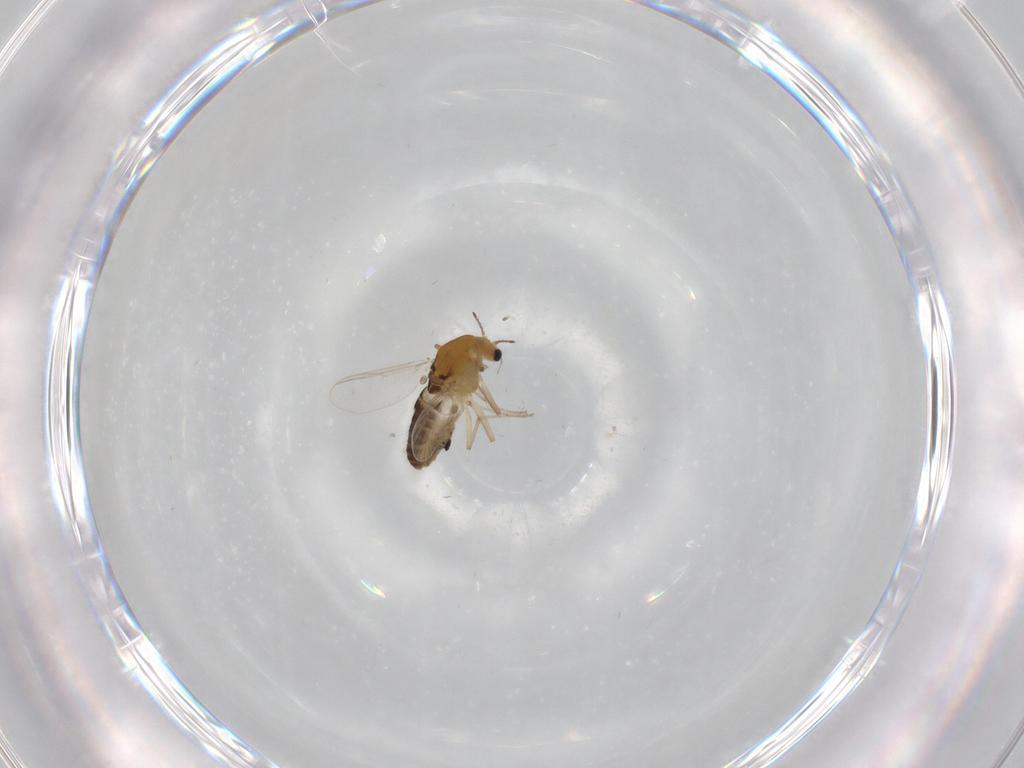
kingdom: Animalia
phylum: Arthropoda
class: Insecta
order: Diptera
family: Chironomidae
